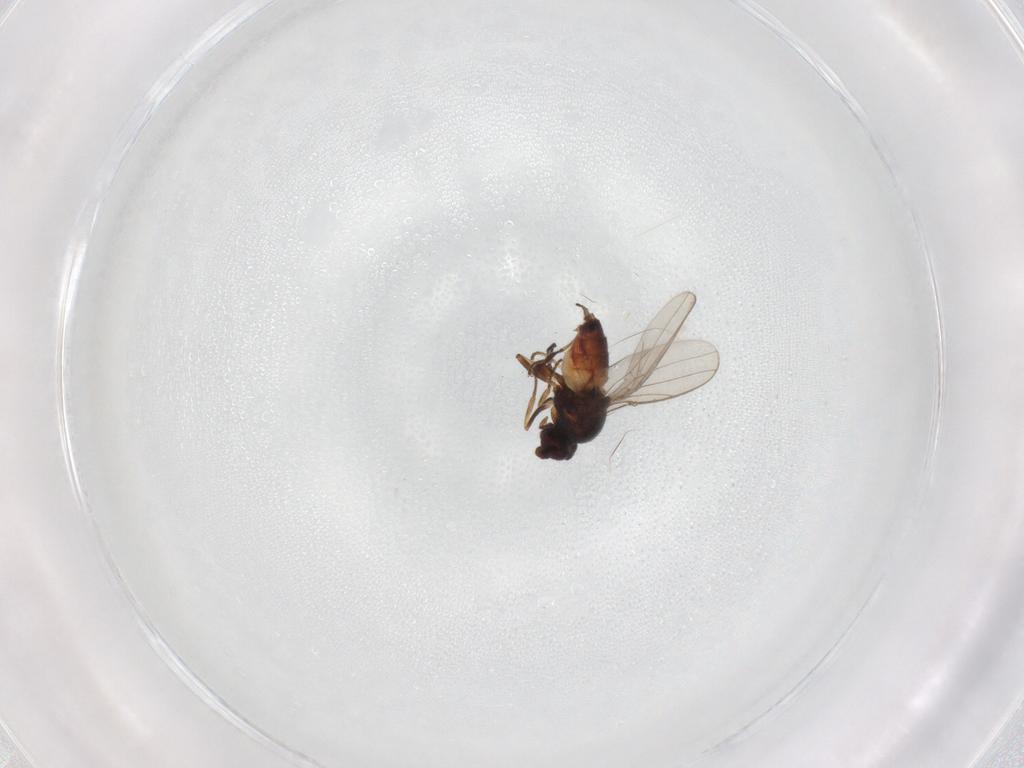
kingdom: Animalia
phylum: Arthropoda
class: Insecta
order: Diptera
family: Chloropidae
